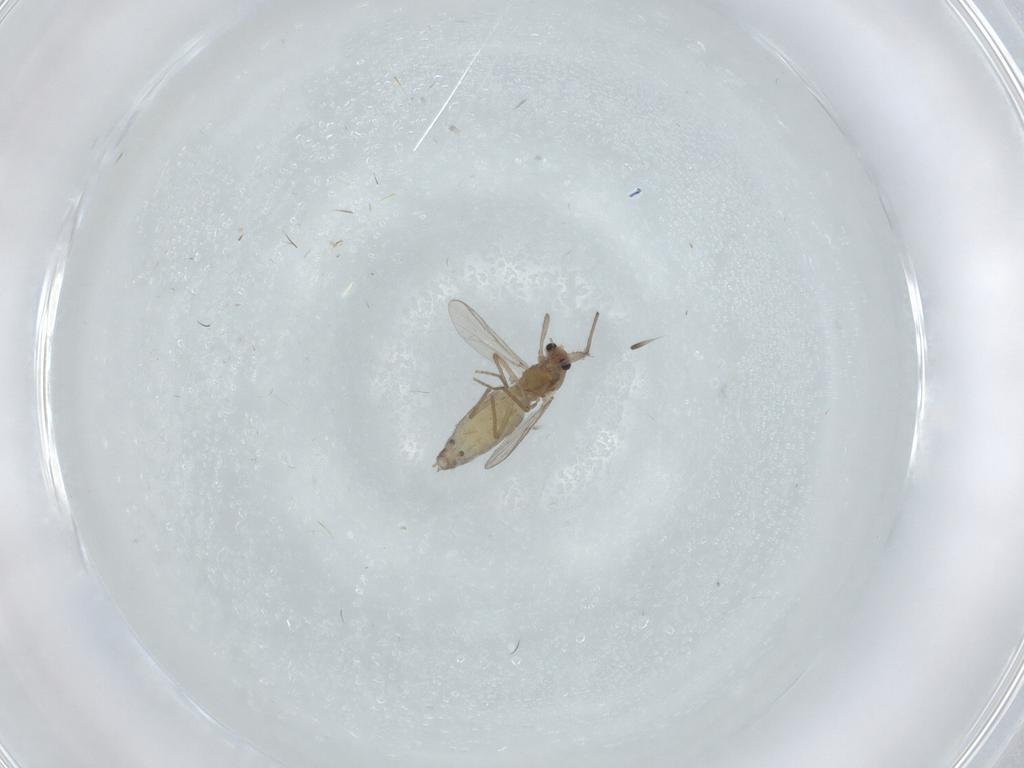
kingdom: Animalia
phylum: Arthropoda
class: Insecta
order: Diptera
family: Chironomidae
